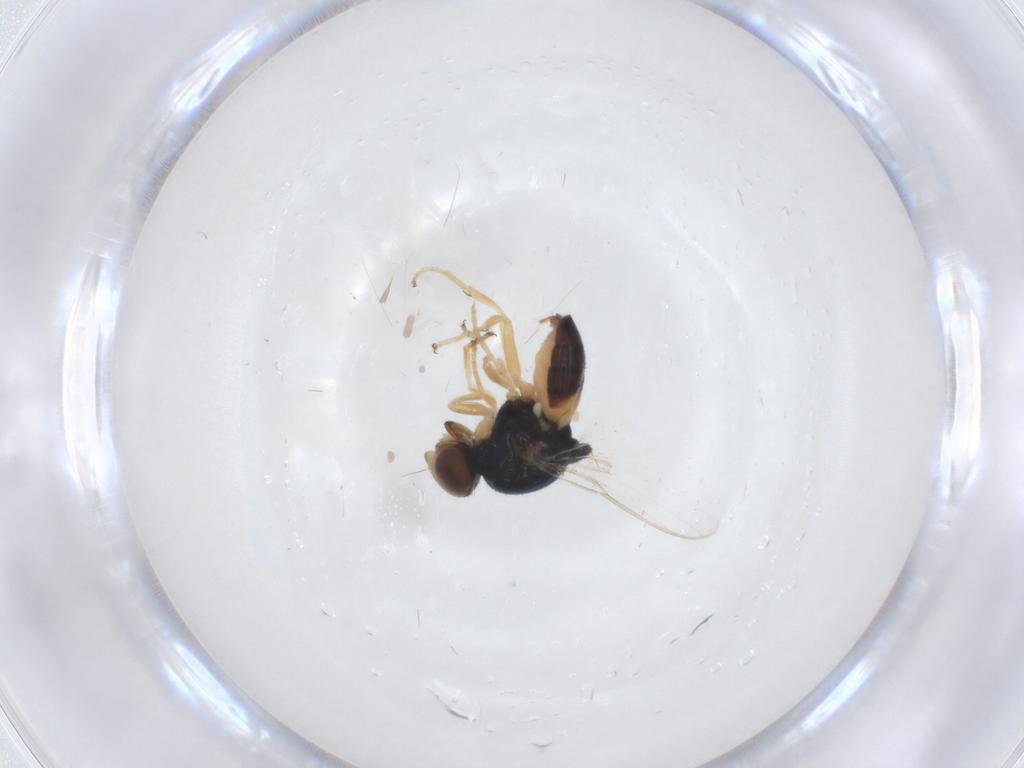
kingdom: Animalia
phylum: Arthropoda
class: Insecta
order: Diptera
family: Chloropidae
